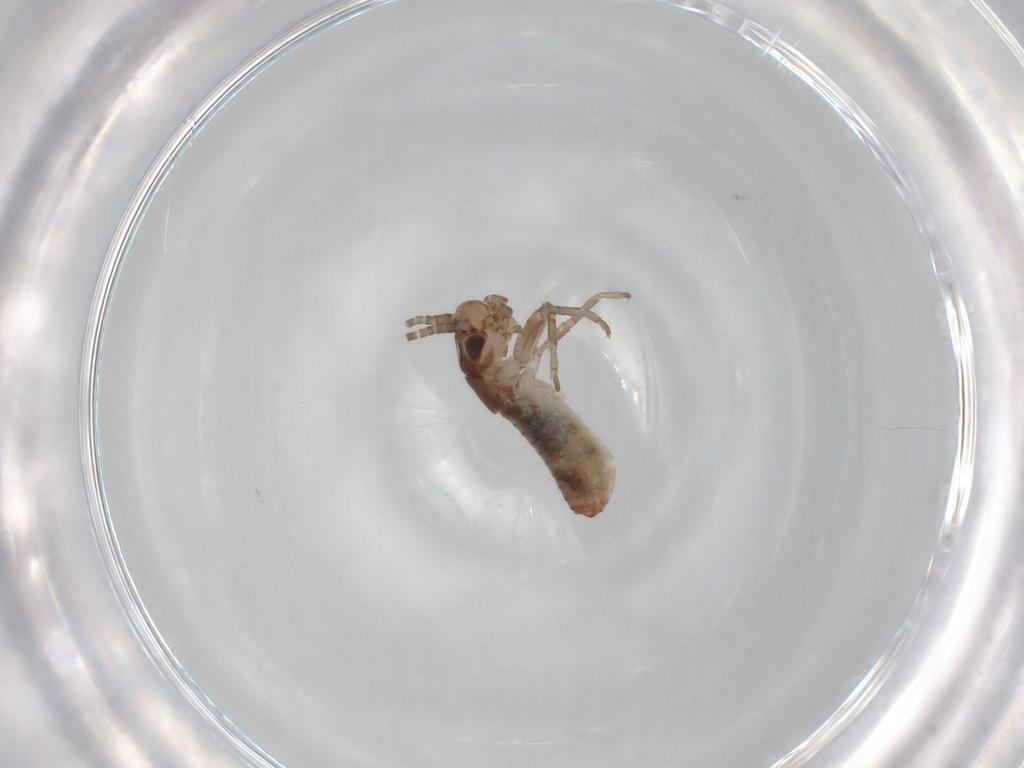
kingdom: Animalia
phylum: Arthropoda
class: Insecta
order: Orthoptera
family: Mogoplistidae
